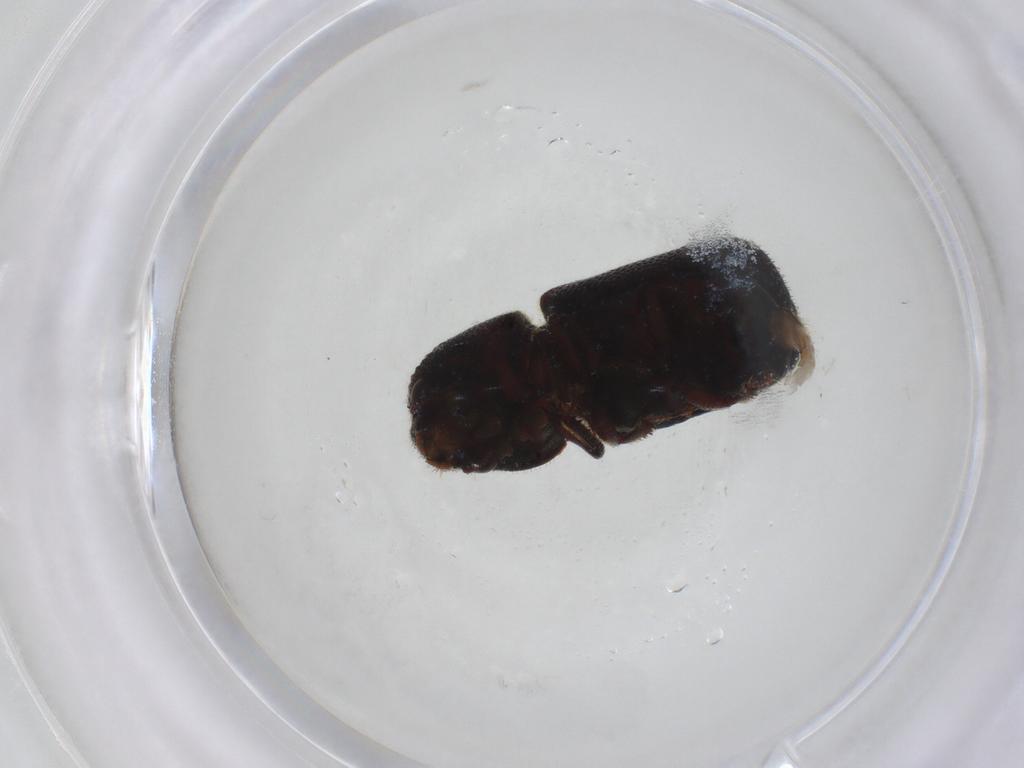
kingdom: Animalia
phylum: Arthropoda
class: Insecta
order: Coleoptera
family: Bostrichidae
